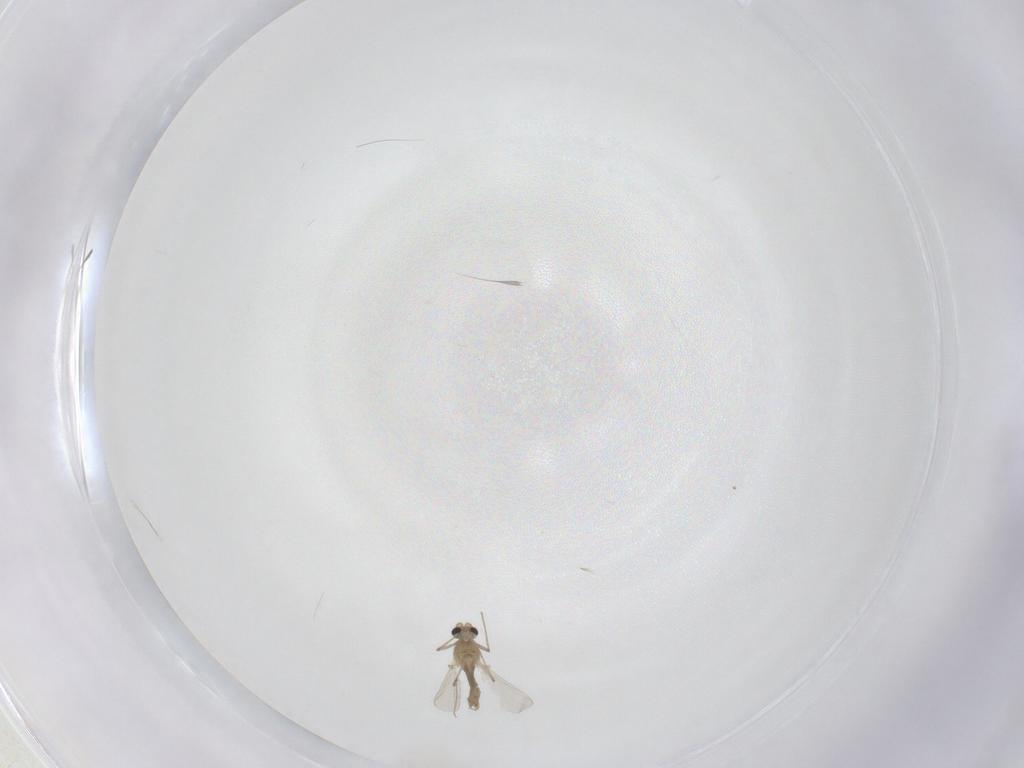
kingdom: Animalia
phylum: Arthropoda
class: Insecta
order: Diptera
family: Chironomidae
